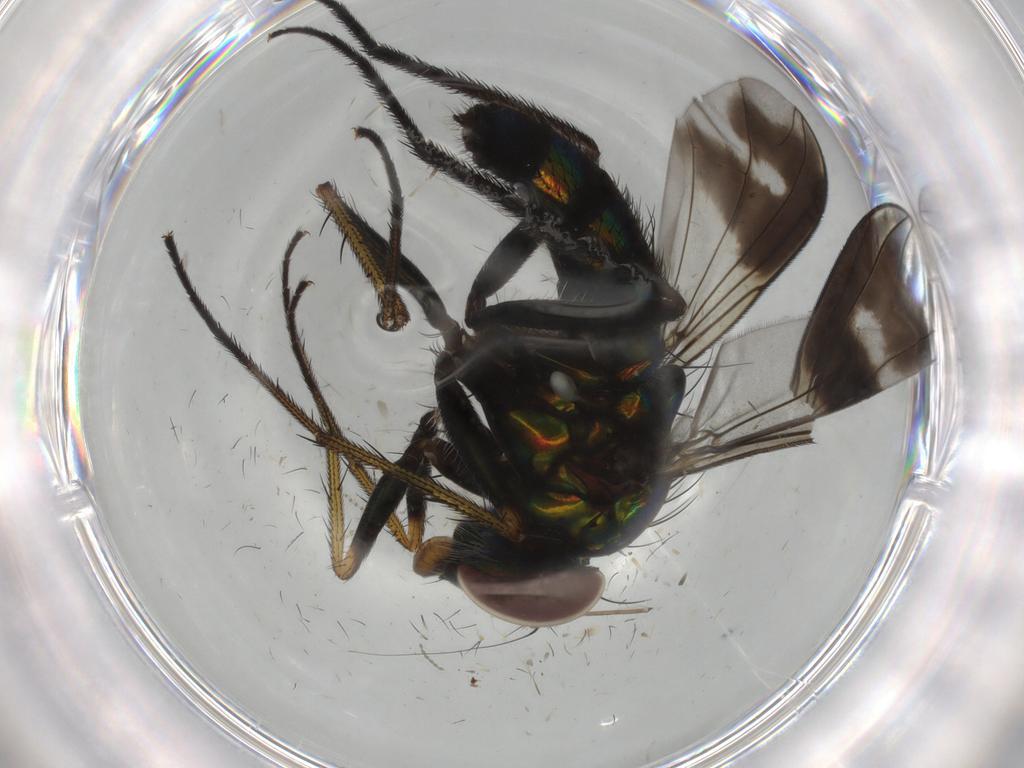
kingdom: Animalia
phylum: Arthropoda
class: Insecta
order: Diptera
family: Dolichopodidae
